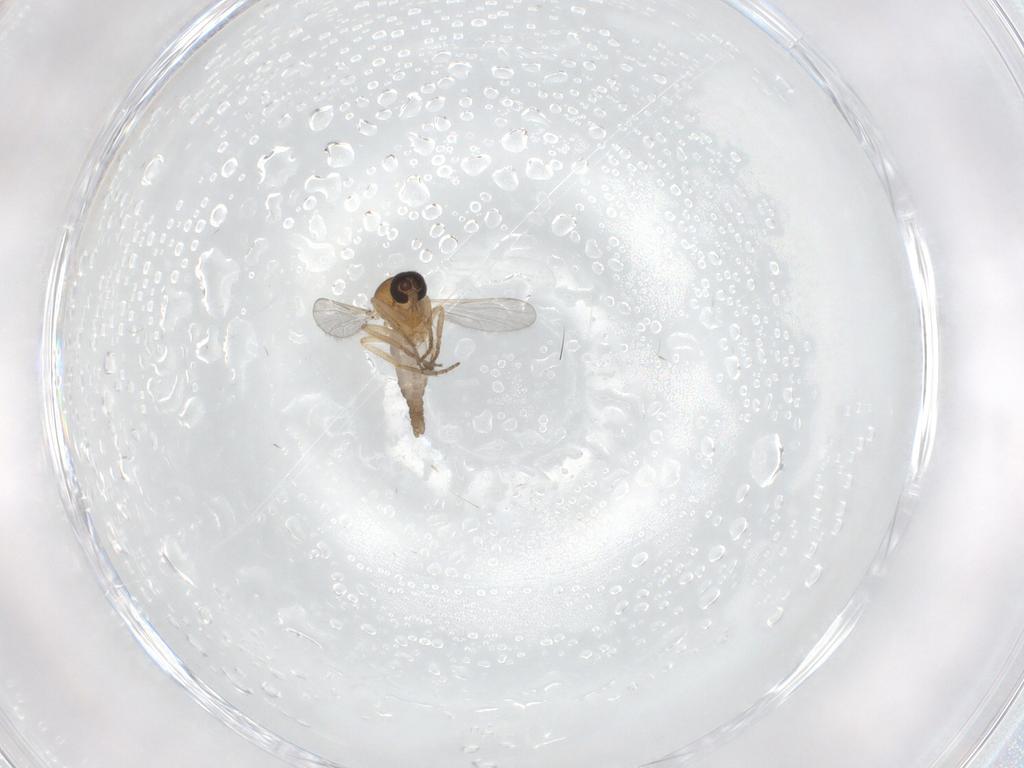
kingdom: Animalia
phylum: Arthropoda
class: Insecta
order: Diptera
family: Ceratopogonidae
